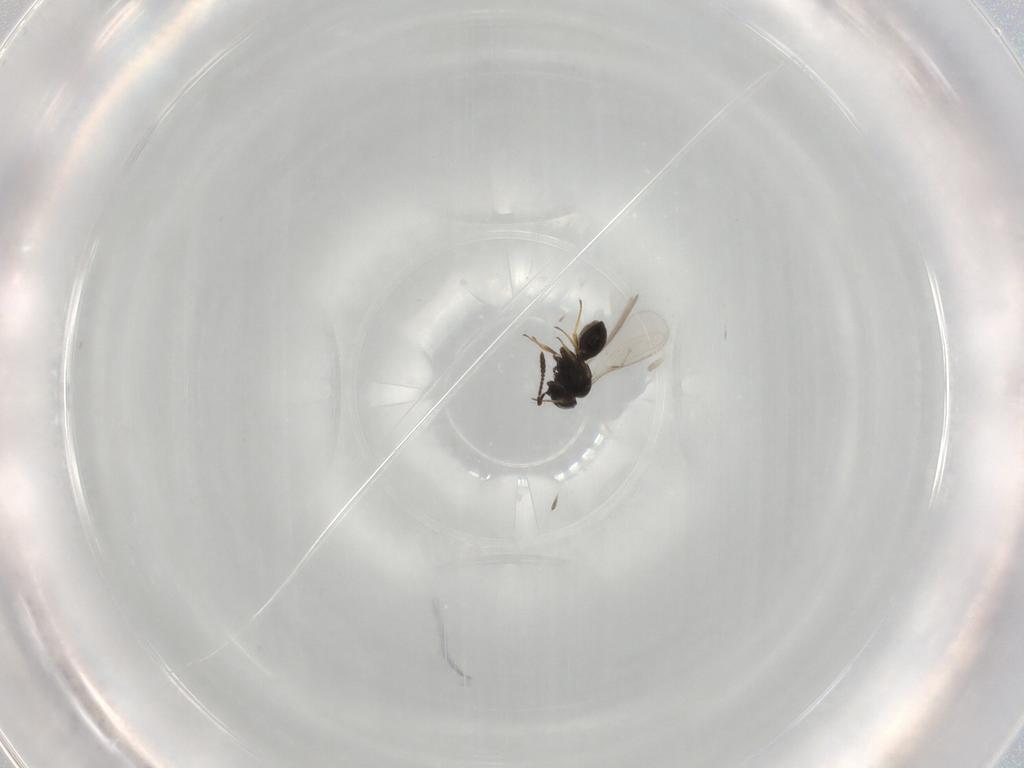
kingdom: Animalia
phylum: Arthropoda
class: Insecta
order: Hymenoptera
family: Scelionidae
